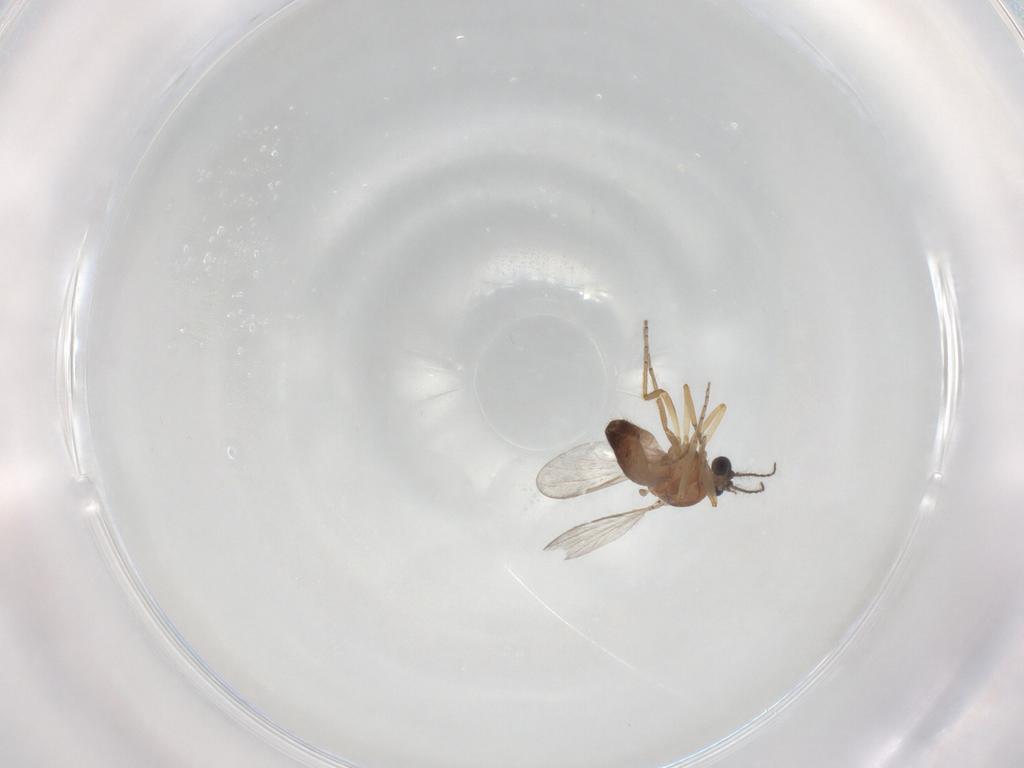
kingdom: Animalia
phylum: Arthropoda
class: Insecta
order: Diptera
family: Ceratopogonidae
